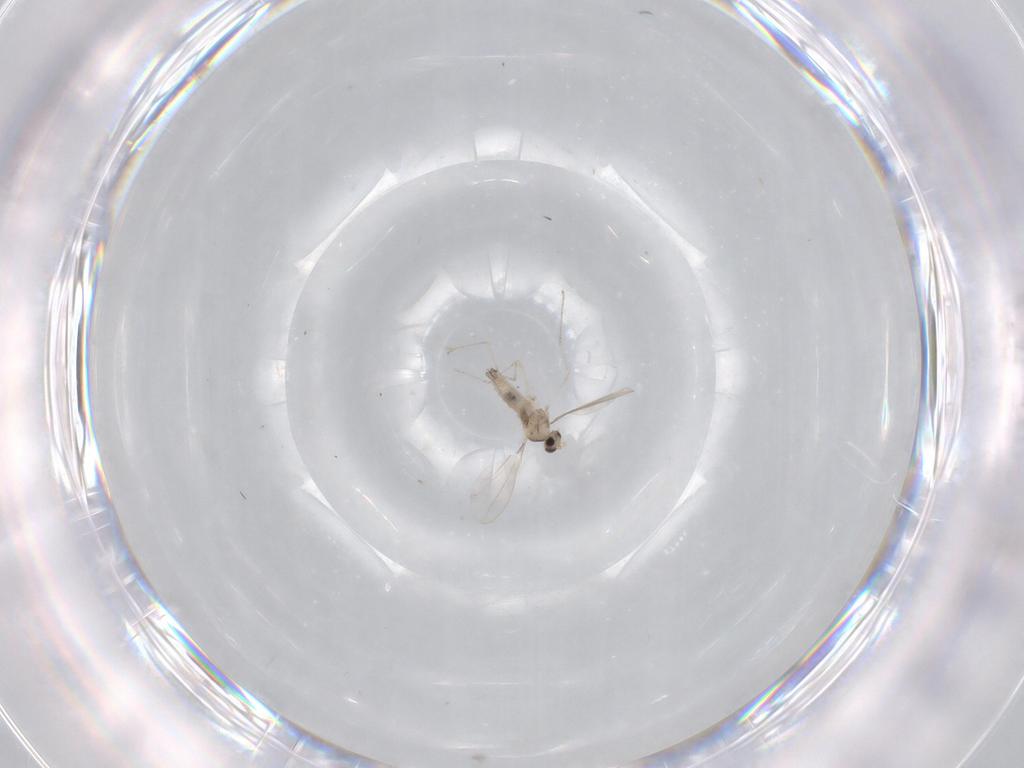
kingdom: Animalia
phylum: Arthropoda
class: Insecta
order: Diptera
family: Cecidomyiidae
